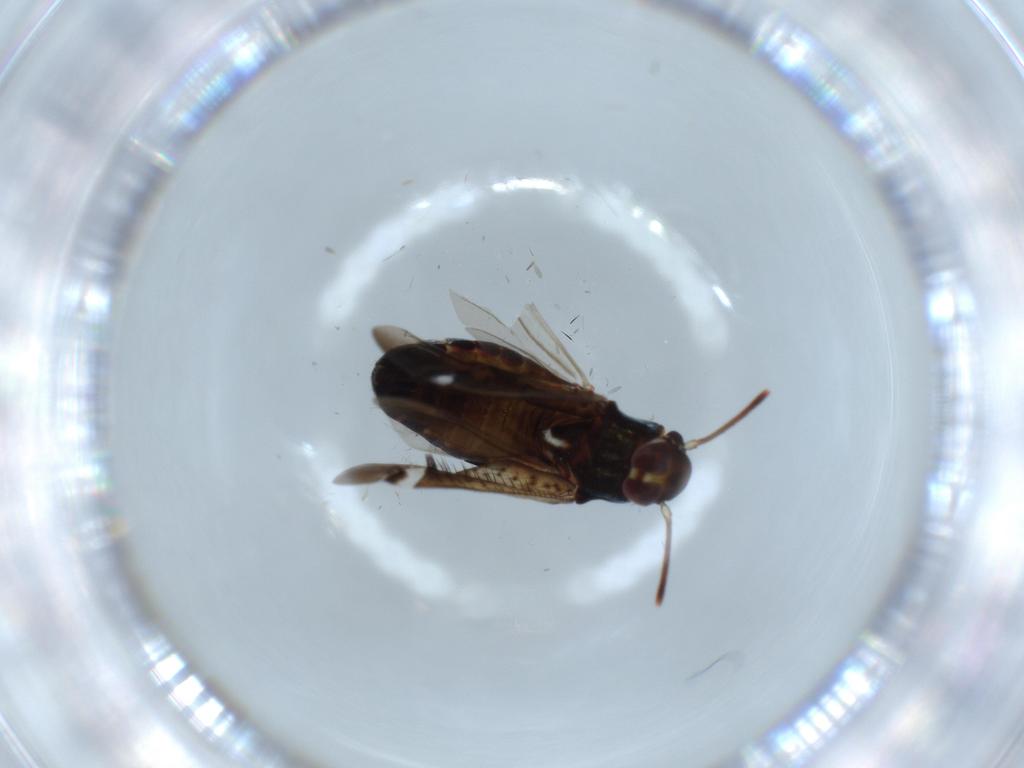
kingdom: Animalia
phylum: Arthropoda
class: Insecta
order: Hemiptera
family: Miridae
